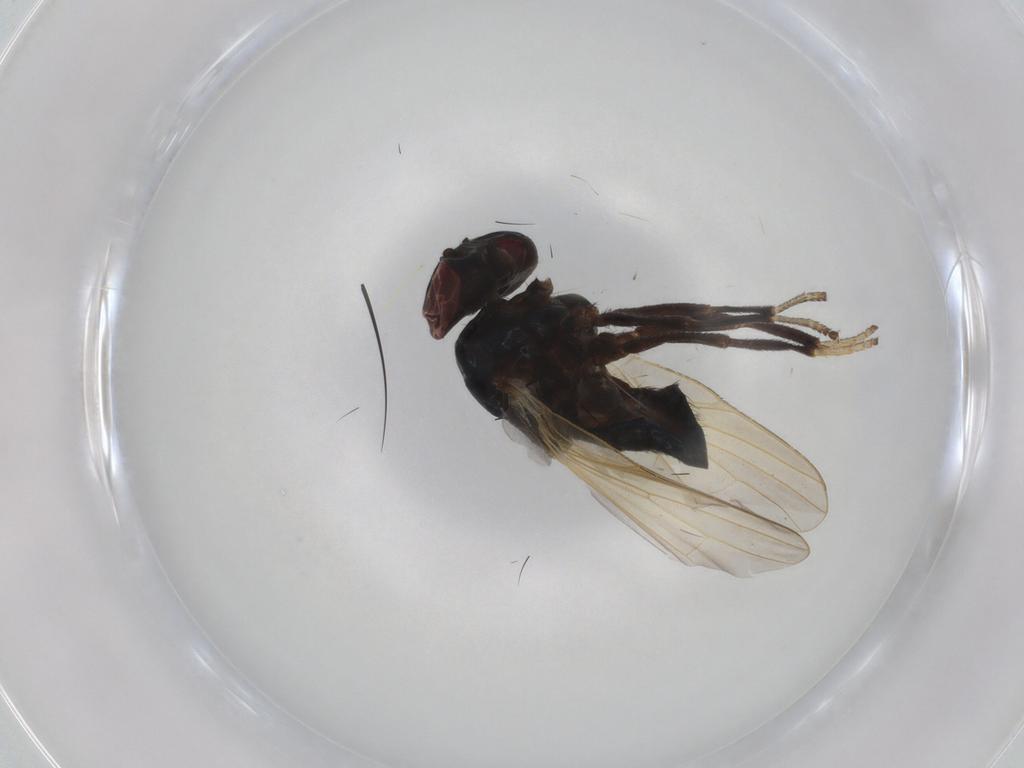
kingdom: Animalia
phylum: Arthropoda
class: Insecta
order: Diptera
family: Lonchaeidae
